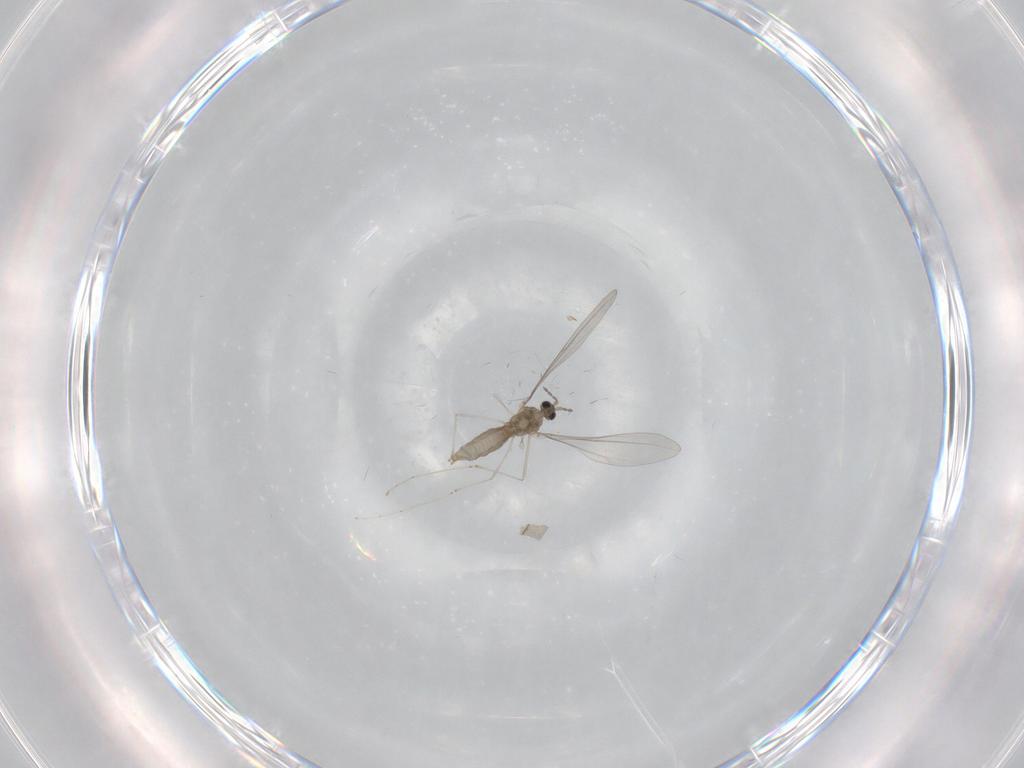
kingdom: Animalia
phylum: Arthropoda
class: Insecta
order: Diptera
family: Cecidomyiidae
